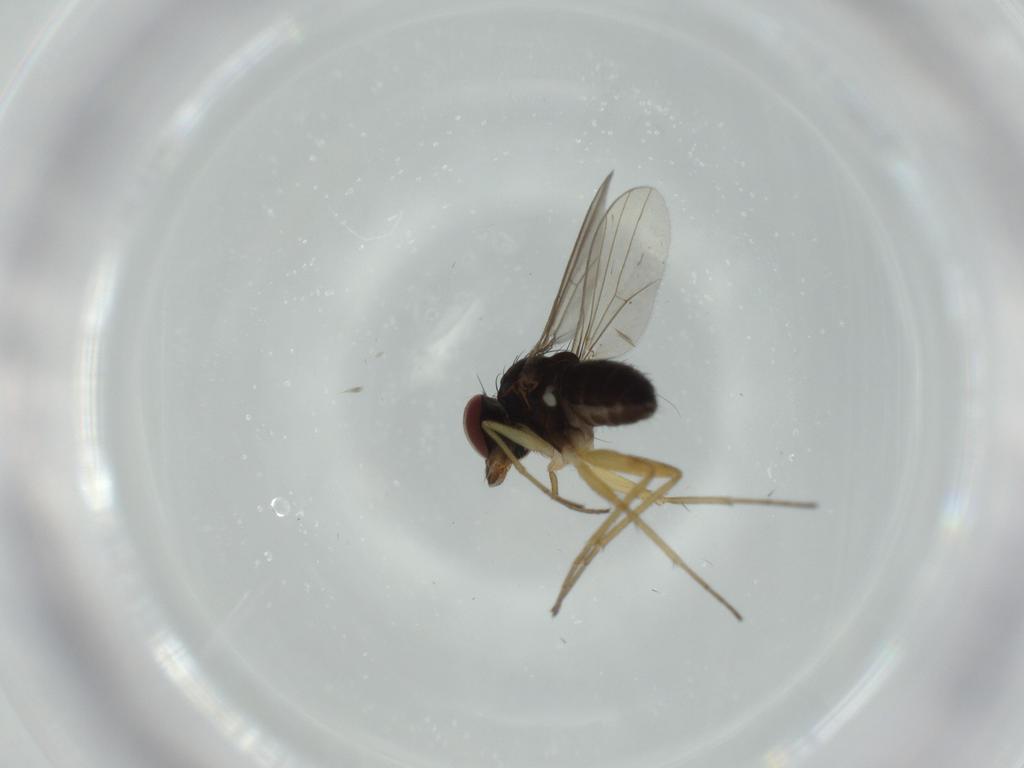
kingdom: Animalia
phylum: Arthropoda
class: Insecta
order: Diptera
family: Dolichopodidae
